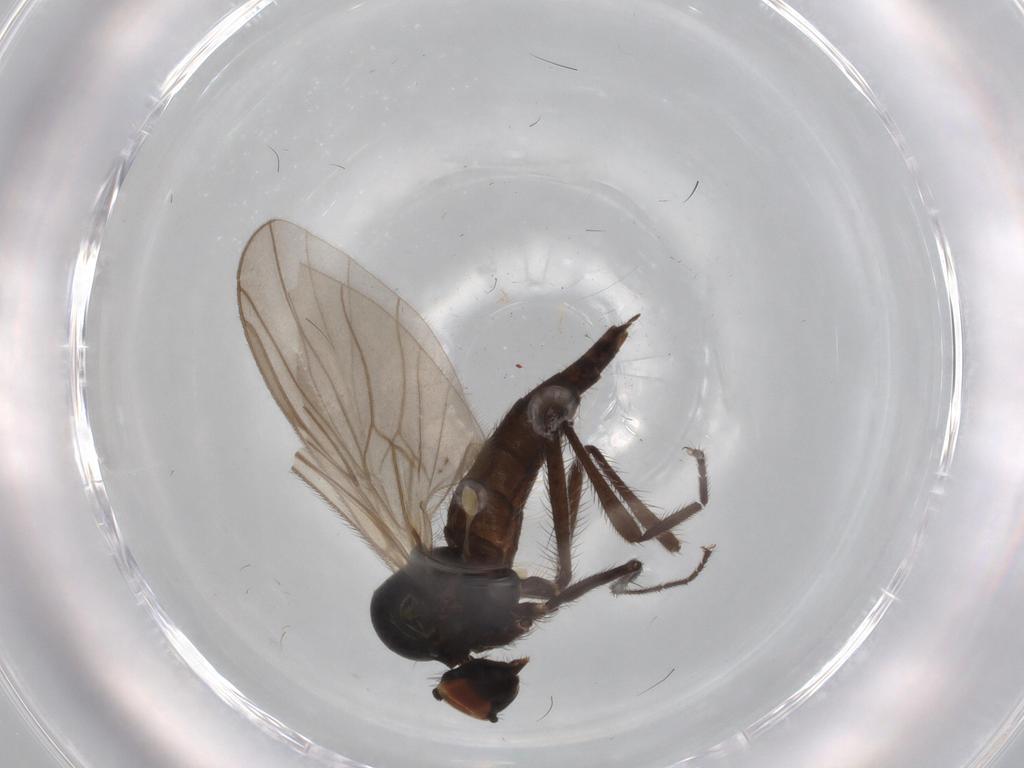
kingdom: Animalia
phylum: Arthropoda
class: Insecta
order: Diptera
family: Hybotidae
